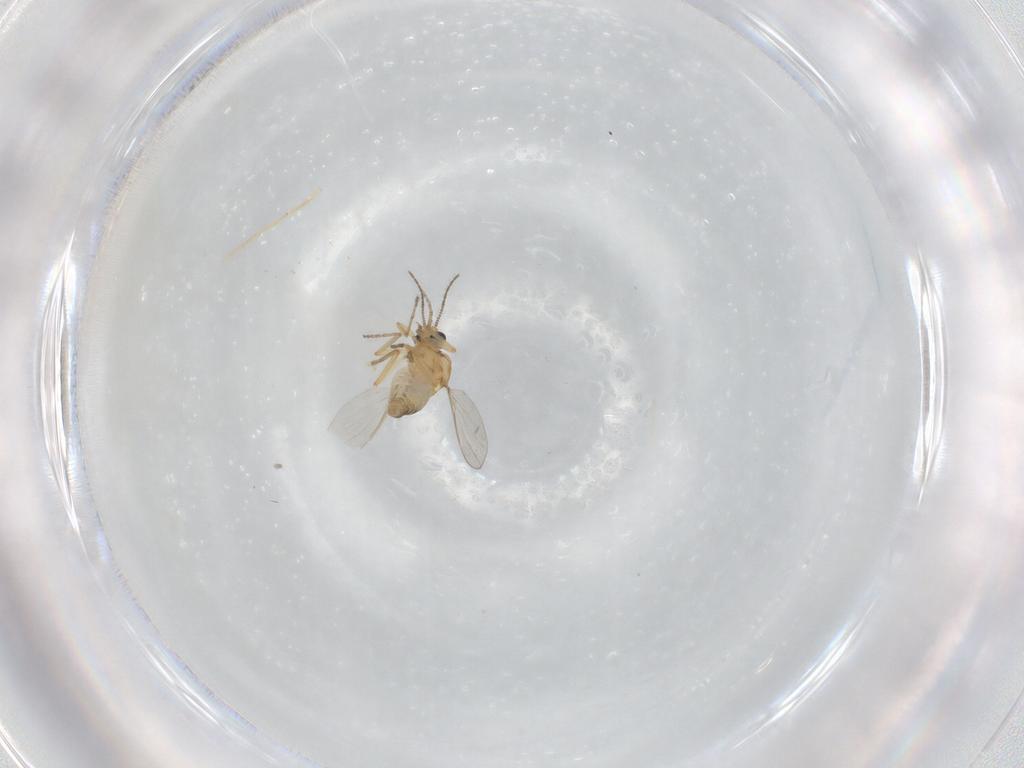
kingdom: Animalia
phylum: Arthropoda
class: Insecta
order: Diptera
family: Ceratopogonidae
